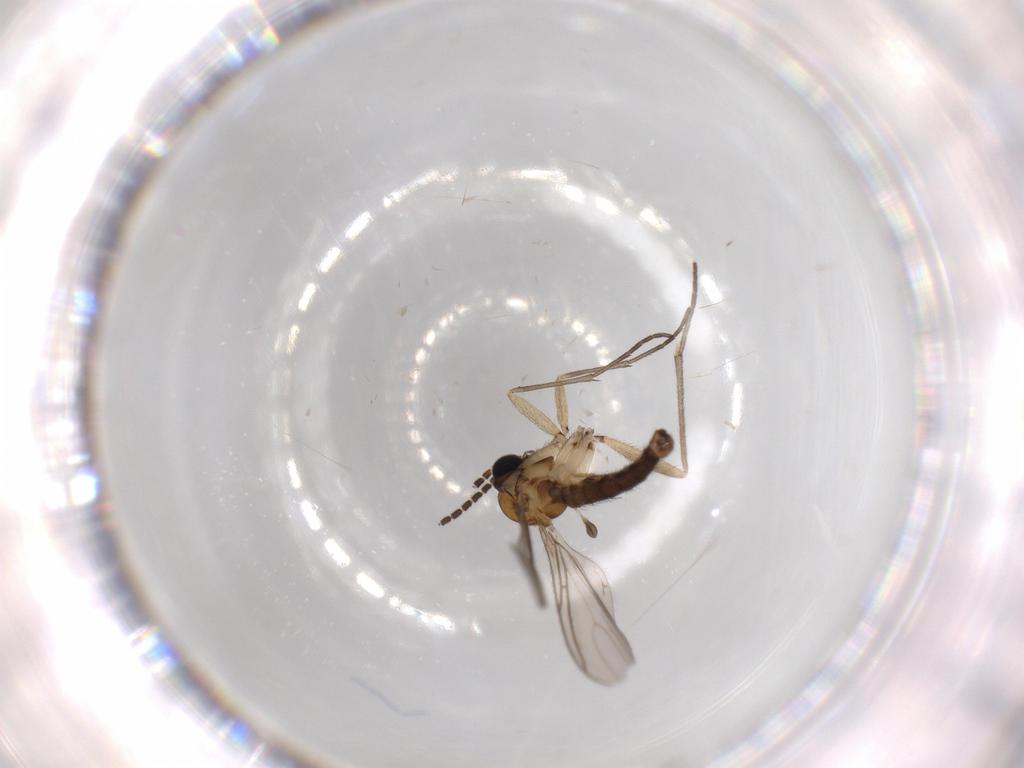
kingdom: Animalia
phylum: Arthropoda
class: Insecta
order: Diptera
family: Sciaridae
